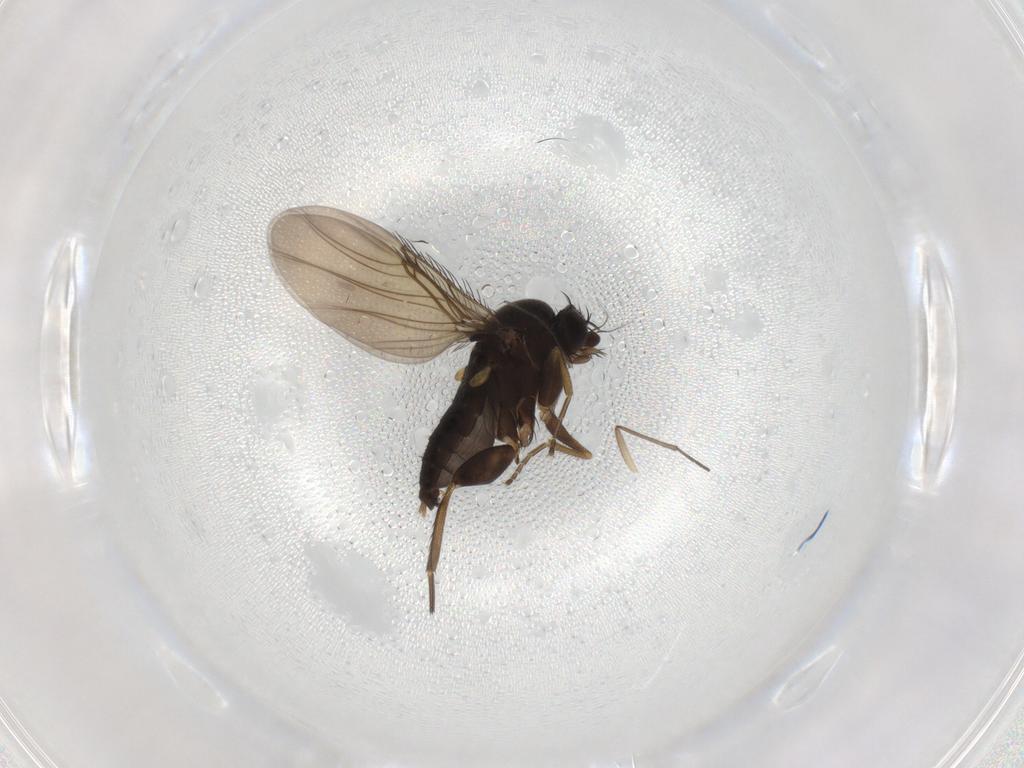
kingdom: Animalia
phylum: Arthropoda
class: Insecta
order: Diptera
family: Phoridae
